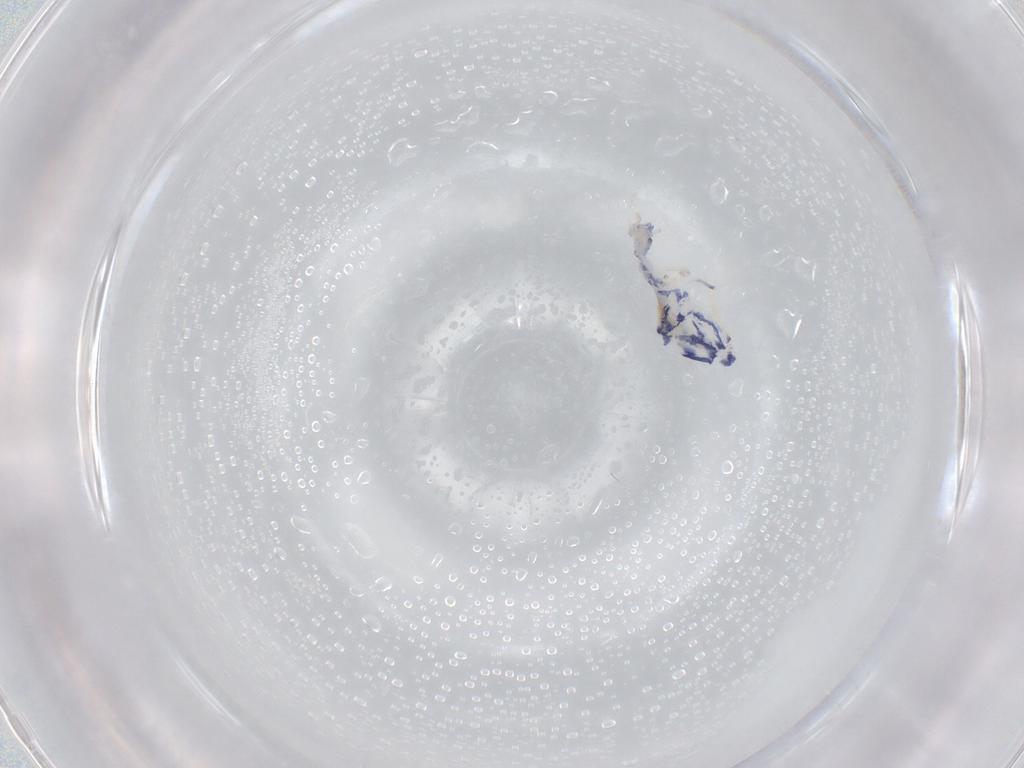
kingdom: Animalia
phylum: Arthropoda
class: Collembola
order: Entomobryomorpha
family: Entomobryidae
